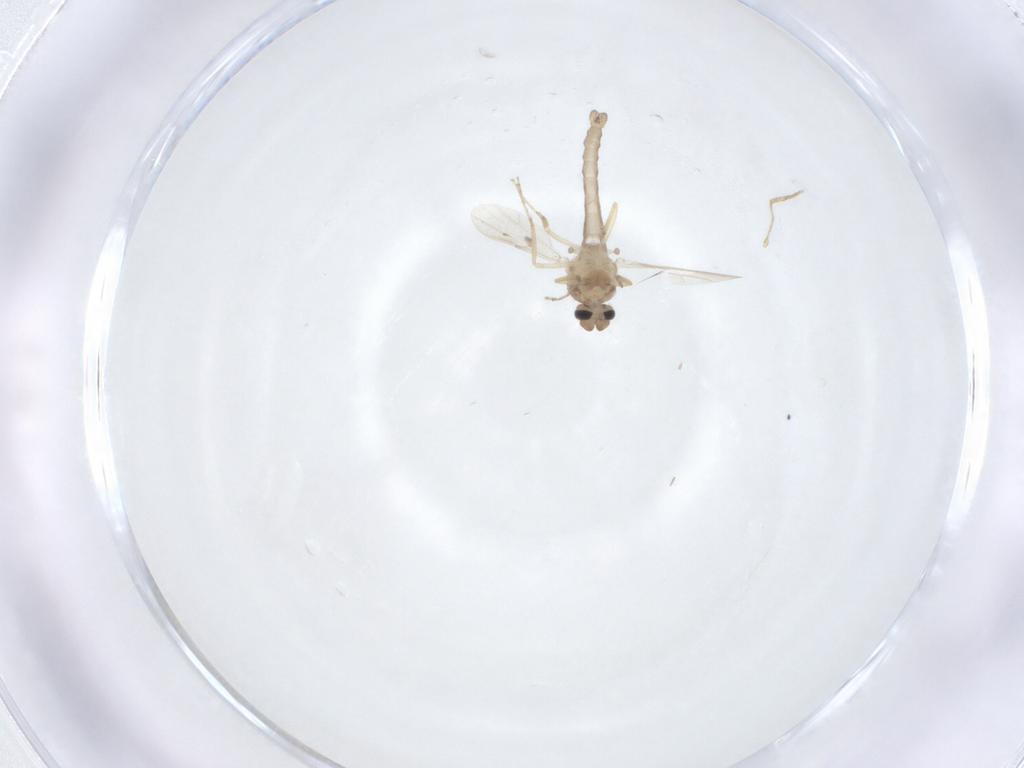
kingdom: Animalia
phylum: Arthropoda
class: Insecta
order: Diptera
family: Ceratopogonidae
